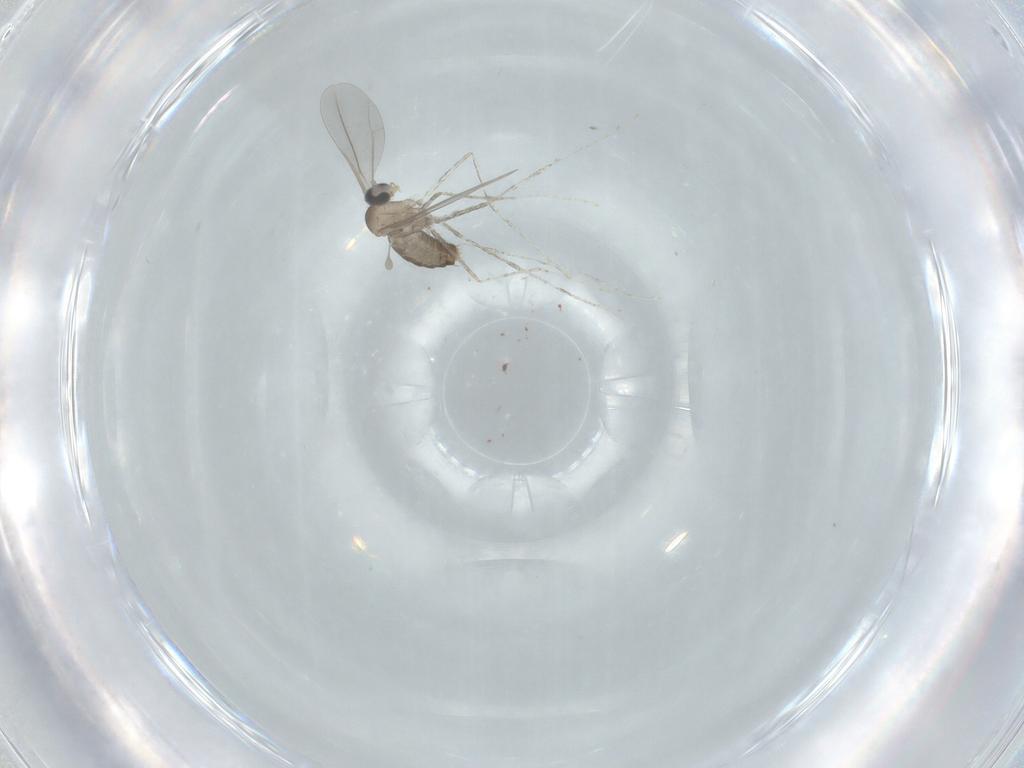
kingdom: Animalia
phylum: Arthropoda
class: Insecta
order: Diptera
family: Cecidomyiidae
